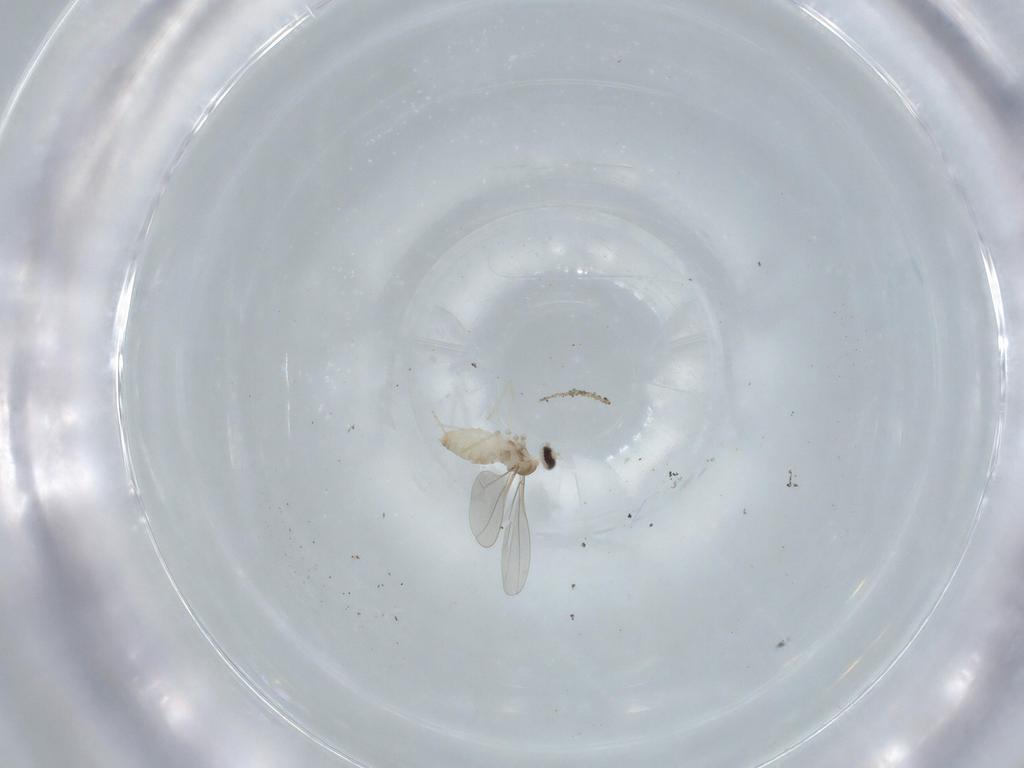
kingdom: Animalia
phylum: Arthropoda
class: Insecta
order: Diptera
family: Cecidomyiidae
